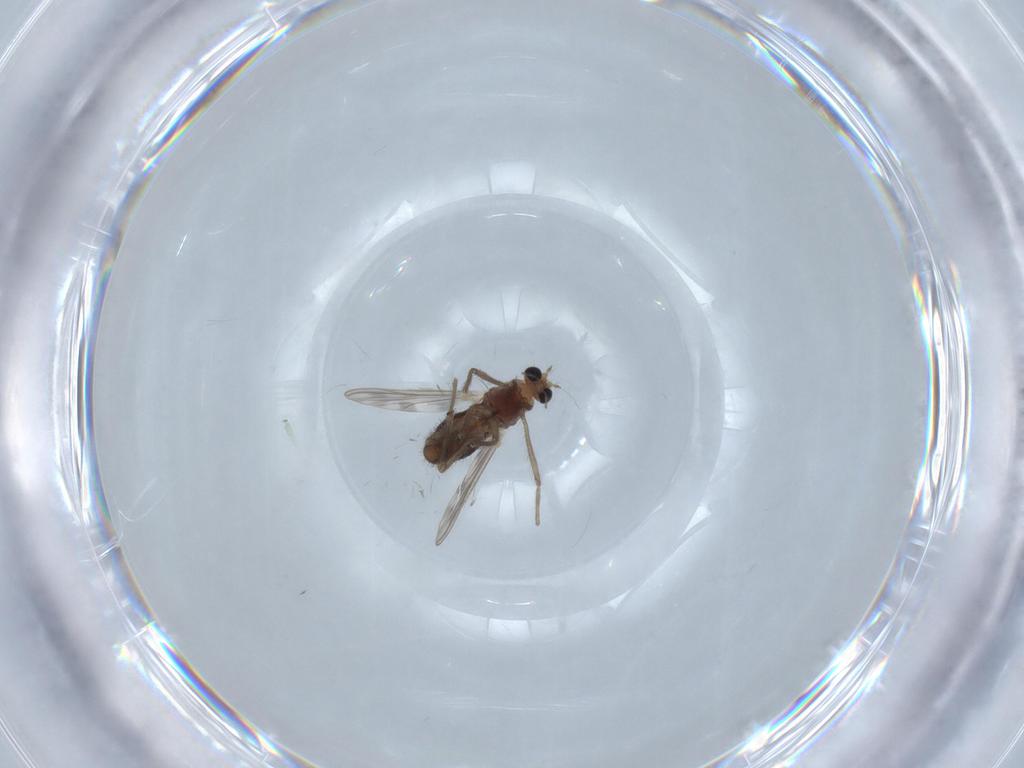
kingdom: Animalia
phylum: Arthropoda
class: Insecta
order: Diptera
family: Chironomidae
